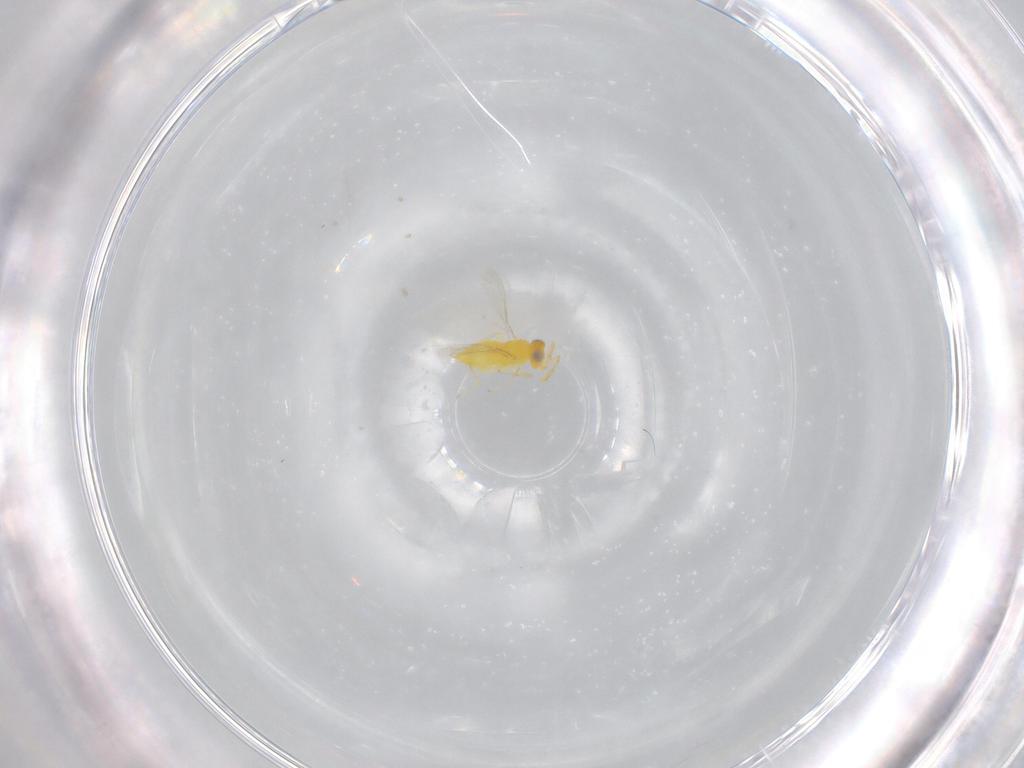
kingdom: Animalia
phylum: Arthropoda
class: Insecta
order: Hymenoptera
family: Aphelinidae
